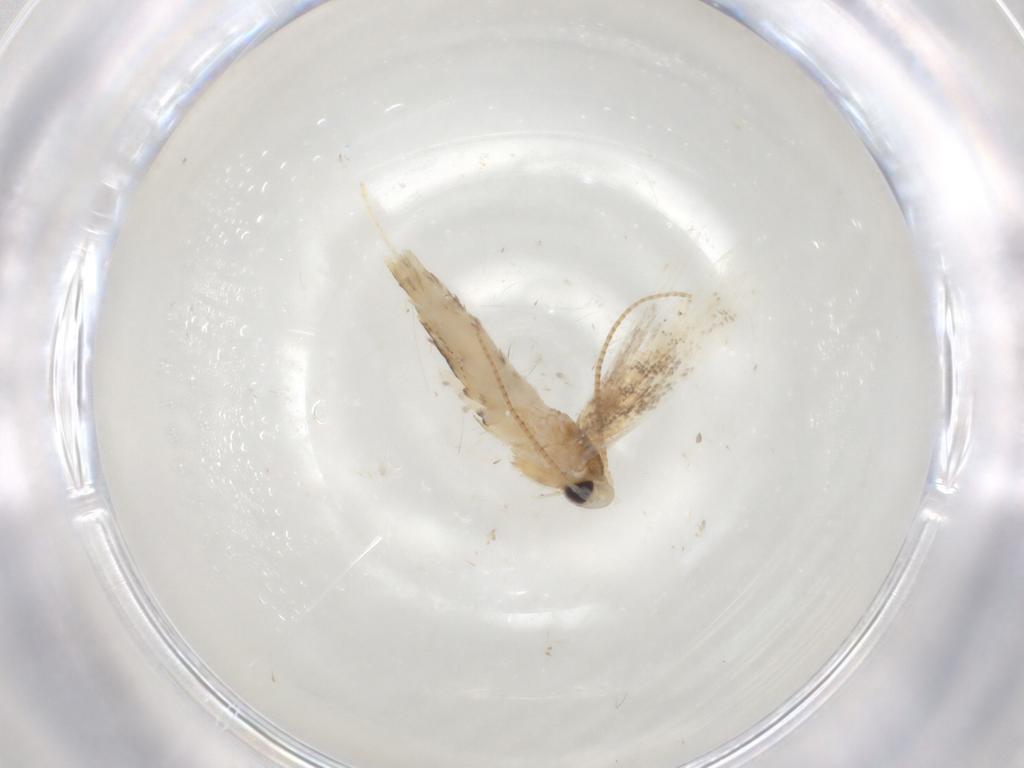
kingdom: Animalia
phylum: Arthropoda
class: Insecta
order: Lepidoptera
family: Gracillariidae
